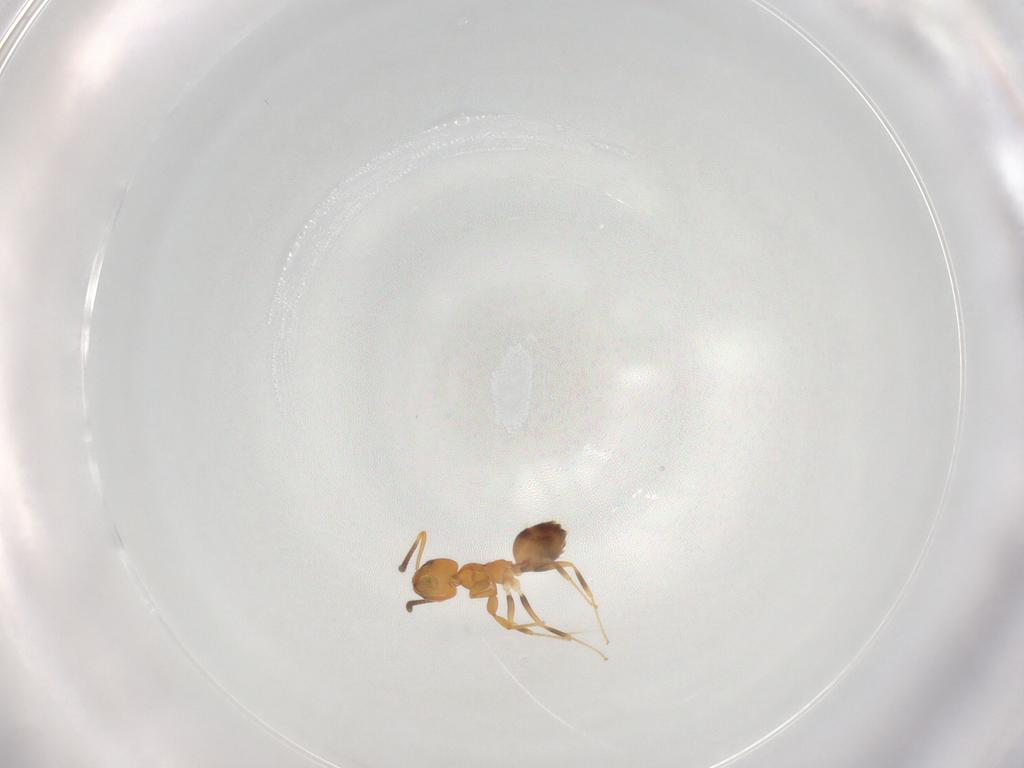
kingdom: Animalia
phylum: Arthropoda
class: Insecta
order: Hymenoptera
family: Formicidae
